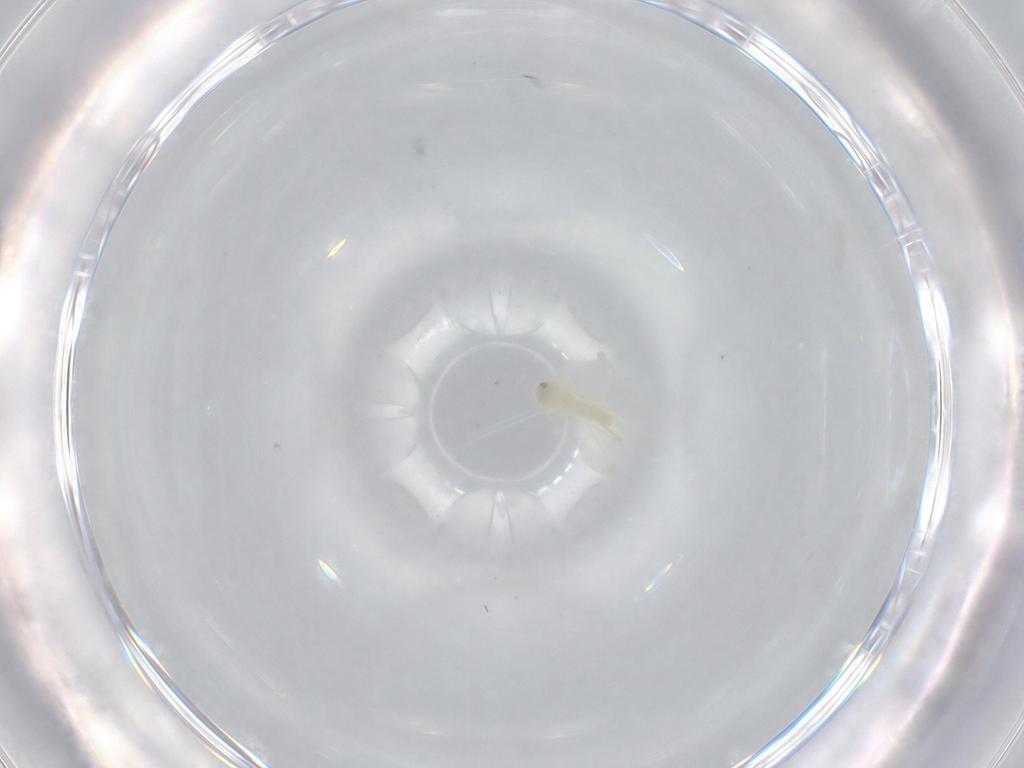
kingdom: Animalia
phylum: Arthropoda
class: Insecta
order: Hemiptera
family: Aleyrodidae
